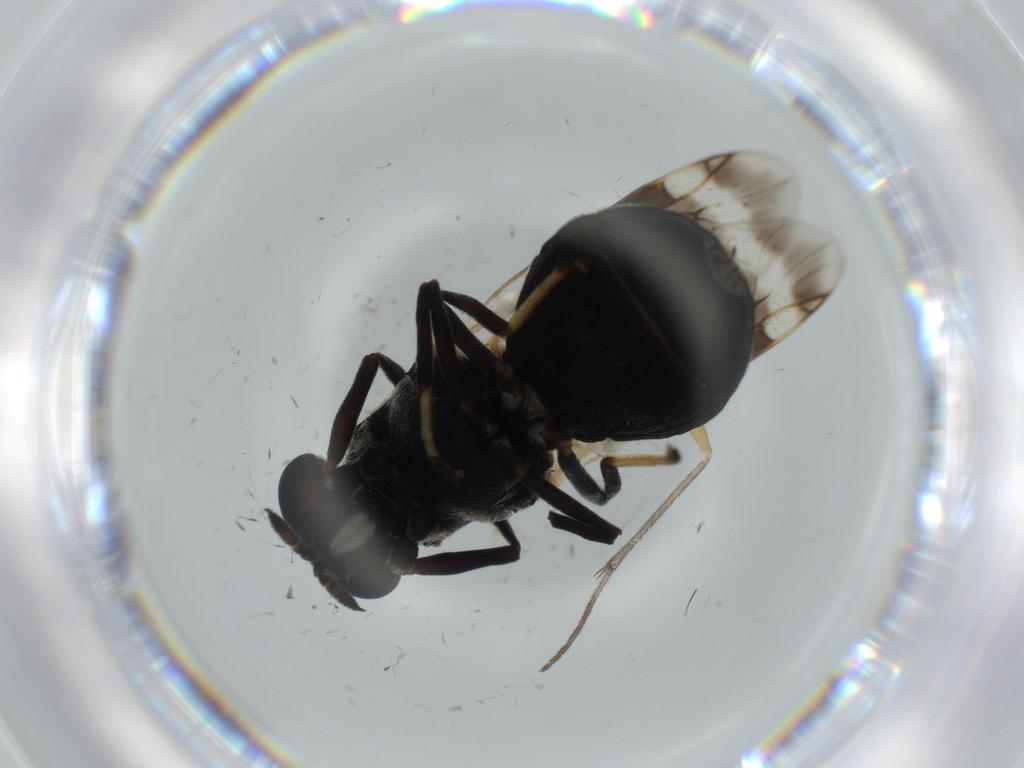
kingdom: Animalia
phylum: Arthropoda
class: Insecta
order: Diptera
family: Stratiomyidae
